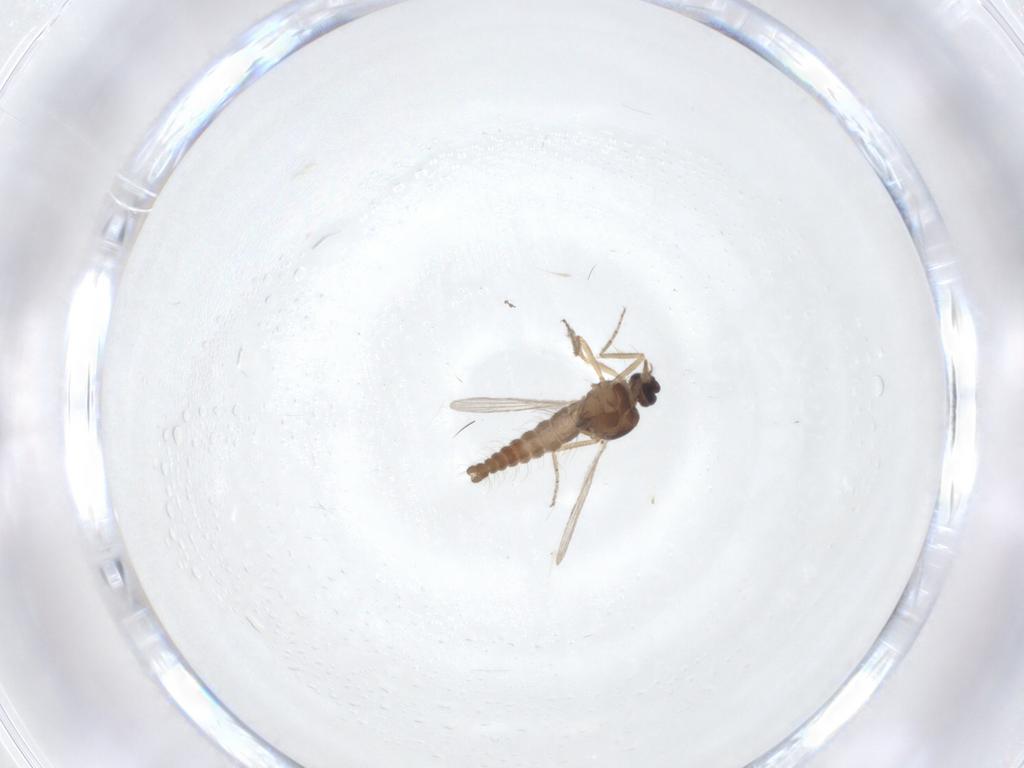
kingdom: Animalia
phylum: Arthropoda
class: Insecta
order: Diptera
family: Ceratopogonidae
